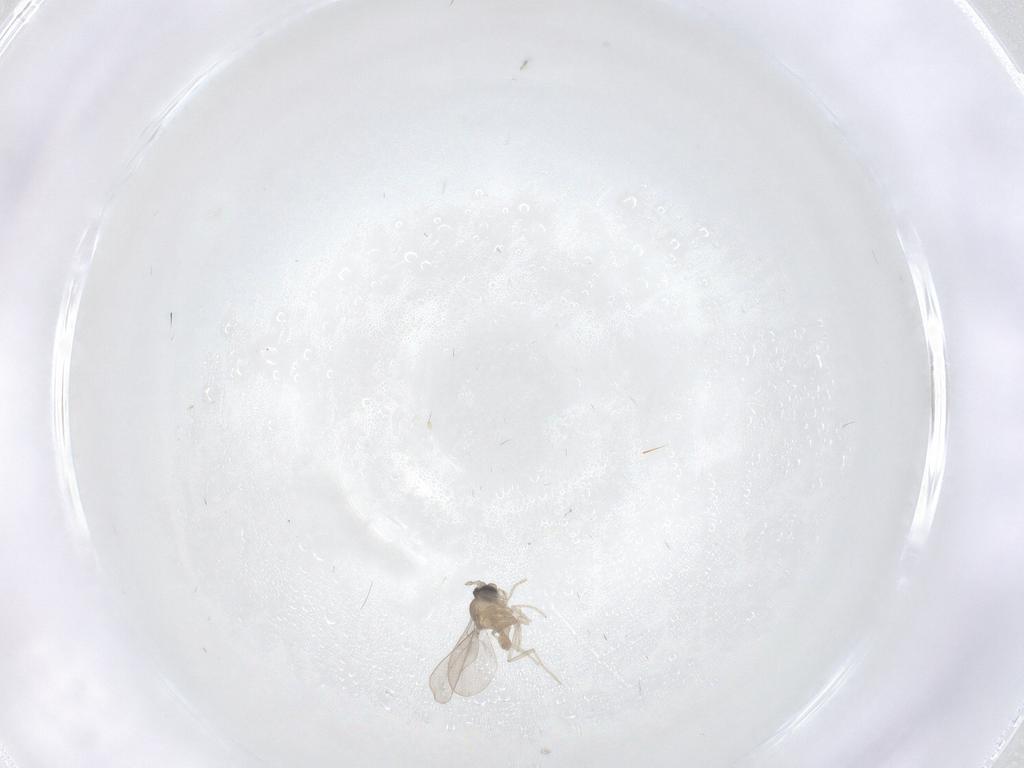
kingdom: Animalia
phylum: Arthropoda
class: Insecta
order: Diptera
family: Cecidomyiidae
